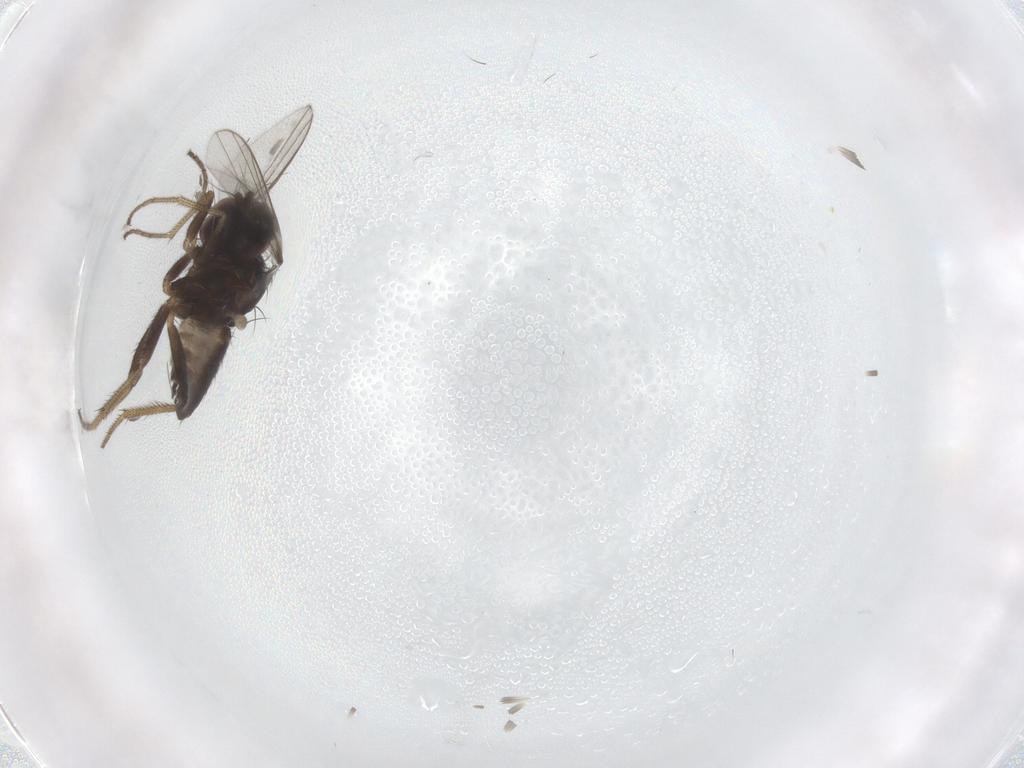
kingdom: Animalia
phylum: Arthropoda
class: Insecta
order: Diptera
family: Dolichopodidae
